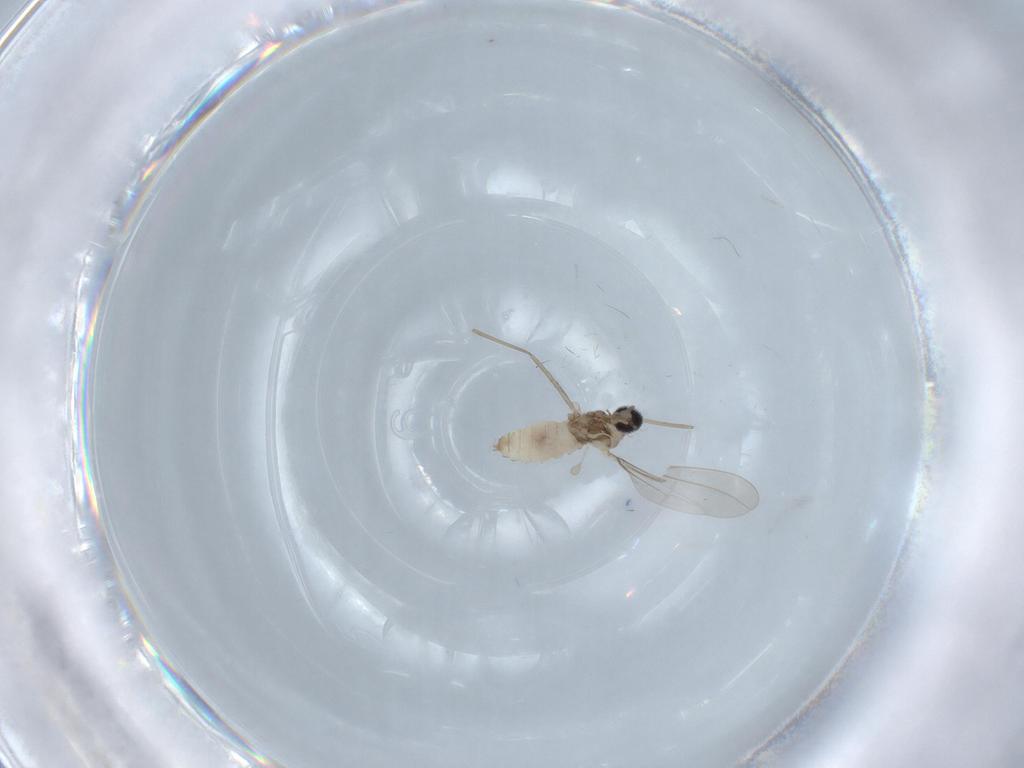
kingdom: Animalia
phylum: Arthropoda
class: Insecta
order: Diptera
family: Cecidomyiidae
